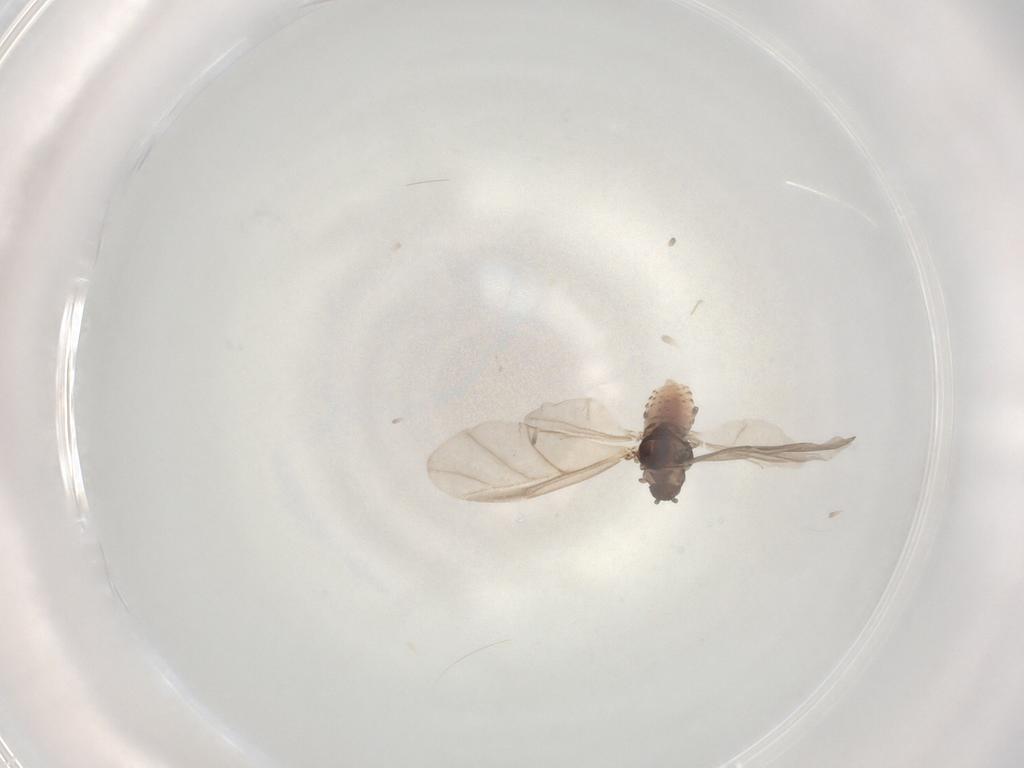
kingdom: Animalia
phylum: Arthropoda
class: Insecta
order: Hemiptera
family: Adelgidae
